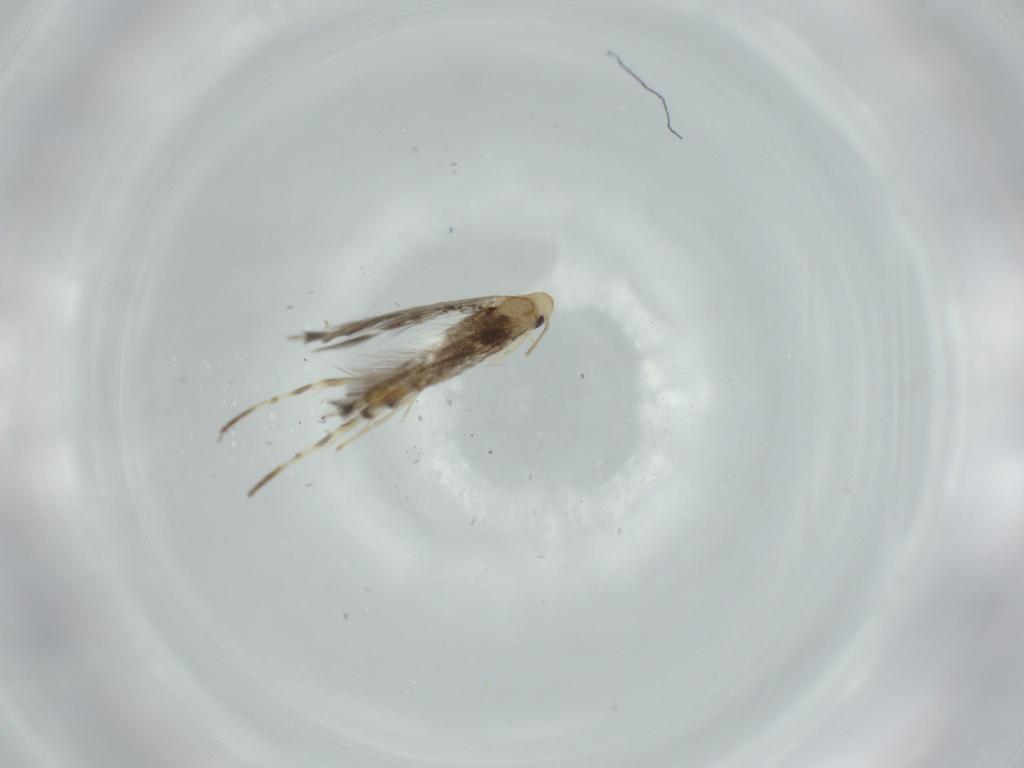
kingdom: Animalia
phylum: Arthropoda
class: Insecta
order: Lepidoptera
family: Nepticulidae
